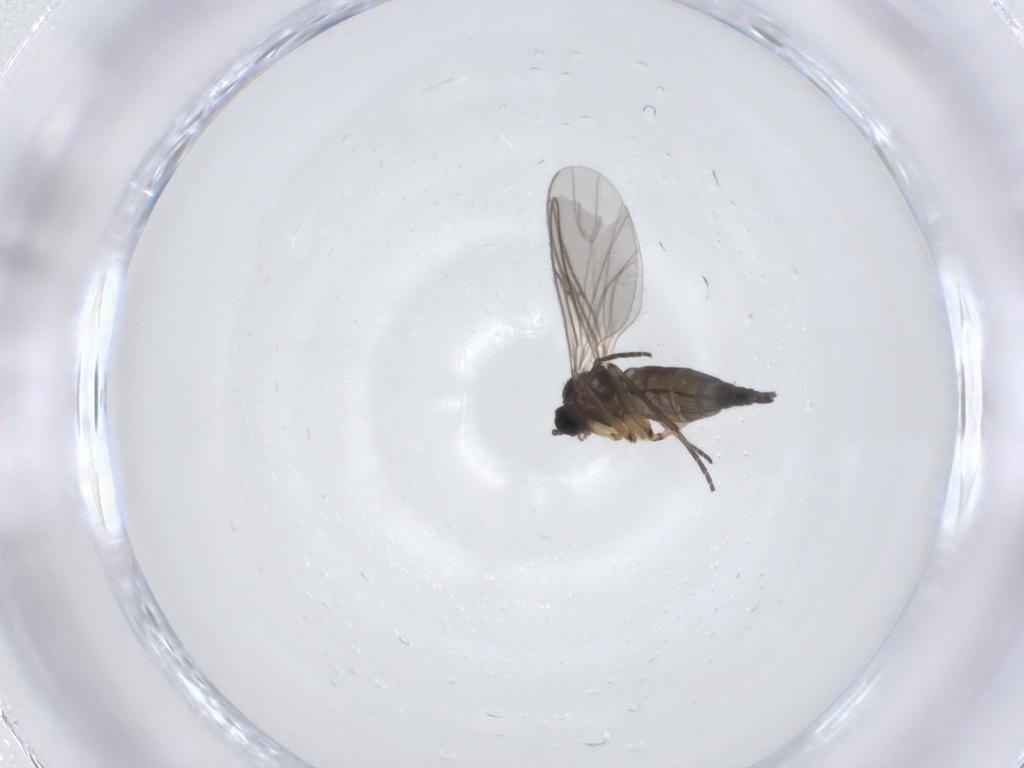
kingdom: Animalia
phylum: Arthropoda
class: Insecta
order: Diptera
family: Sciaridae
